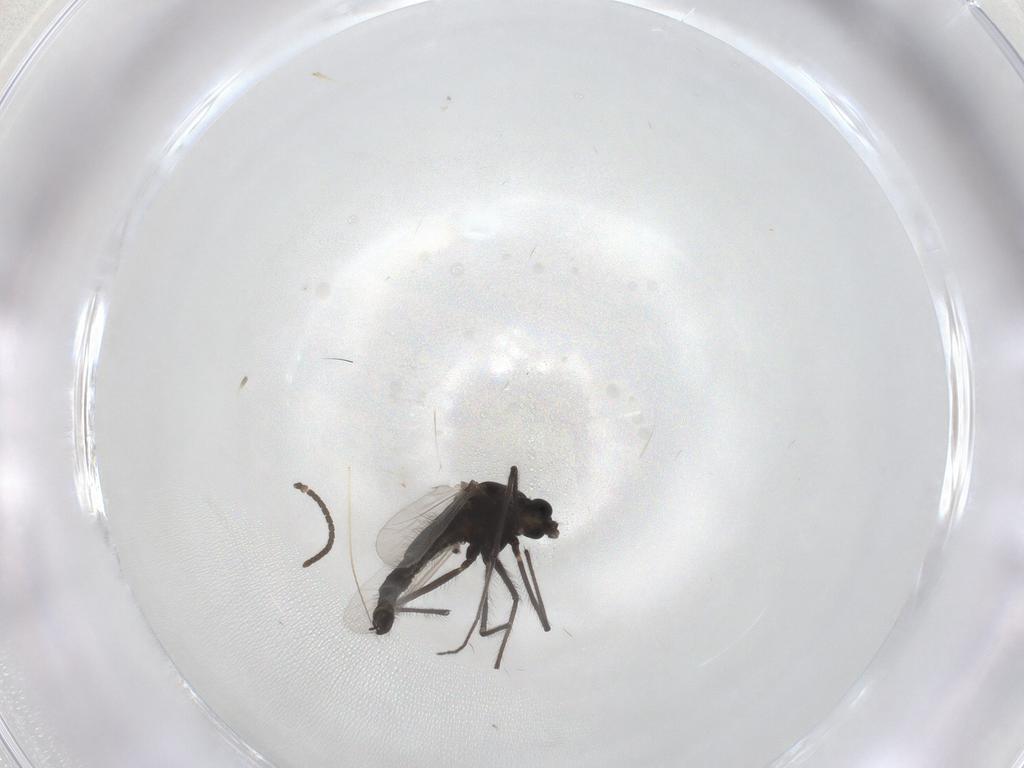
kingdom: Animalia
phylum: Arthropoda
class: Insecta
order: Diptera
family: Chironomidae
